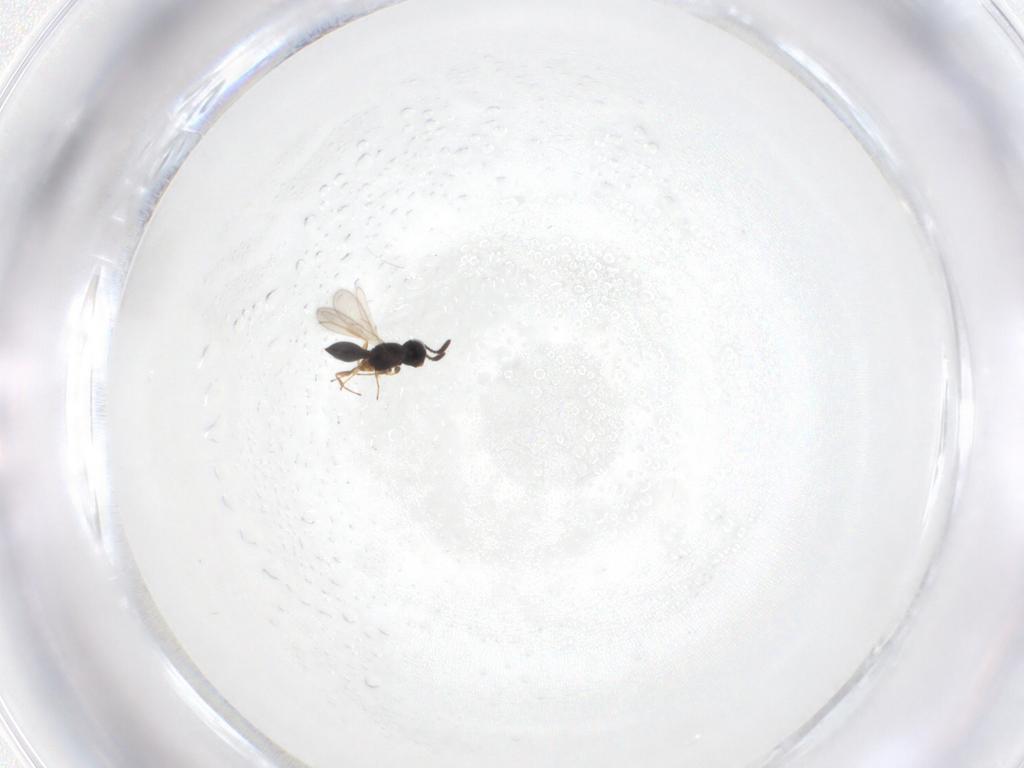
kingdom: Animalia
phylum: Arthropoda
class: Insecta
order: Hymenoptera
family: Scelionidae
